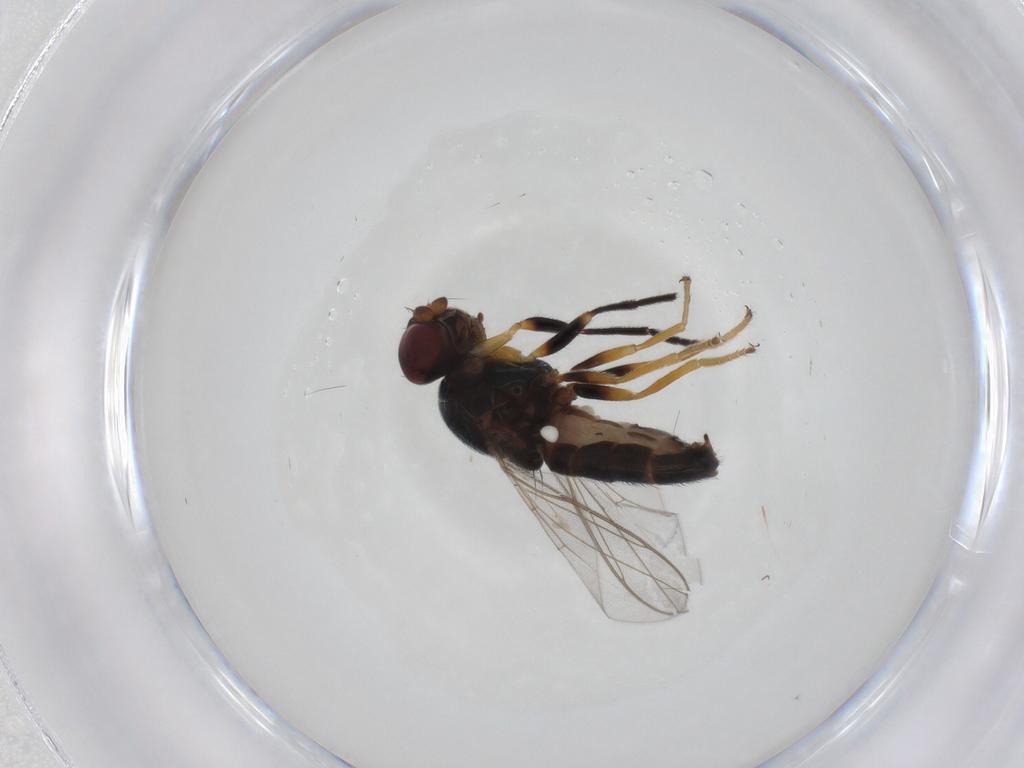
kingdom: Animalia
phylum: Arthropoda
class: Insecta
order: Diptera
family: Chloropidae
